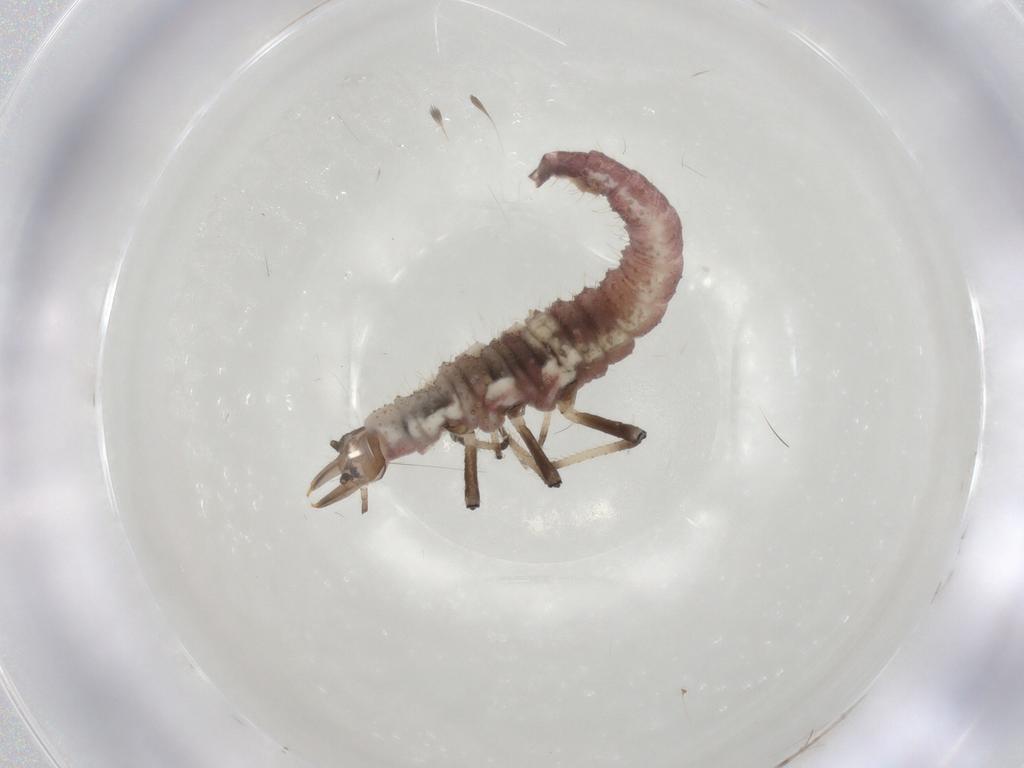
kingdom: Animalia
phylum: Arthropoda
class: Insecta
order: Neuroptera
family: Hemerobiidae
